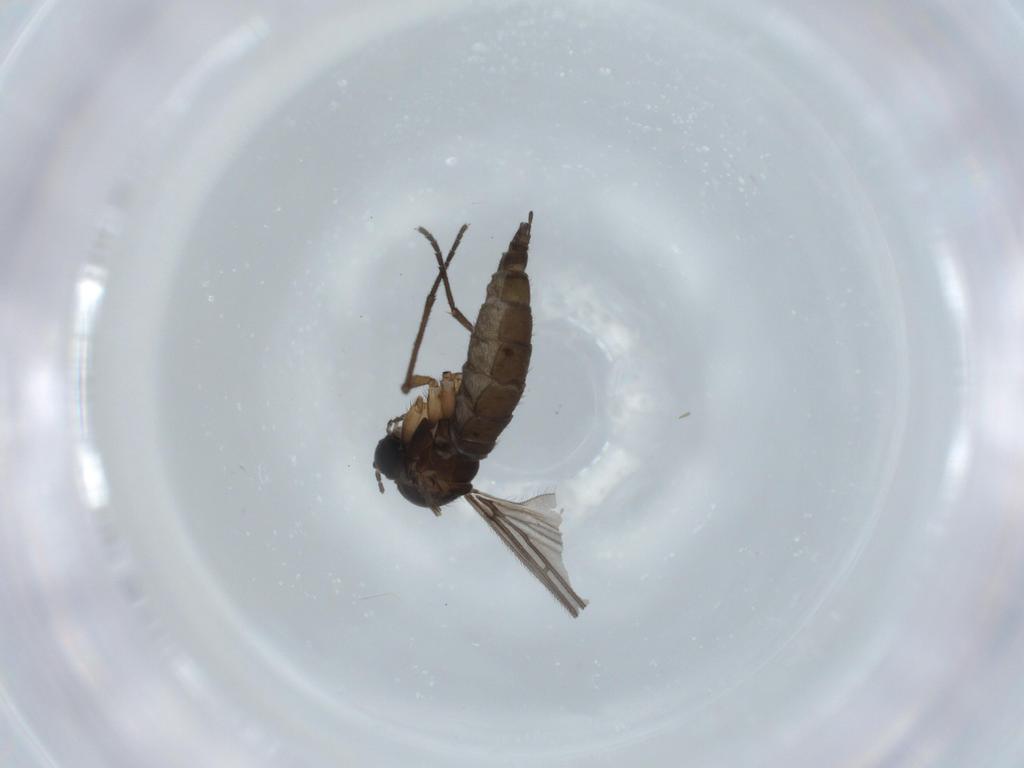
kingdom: Animalia
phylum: Arthropoda
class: Insecta
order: Diptera
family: Sciaridae
